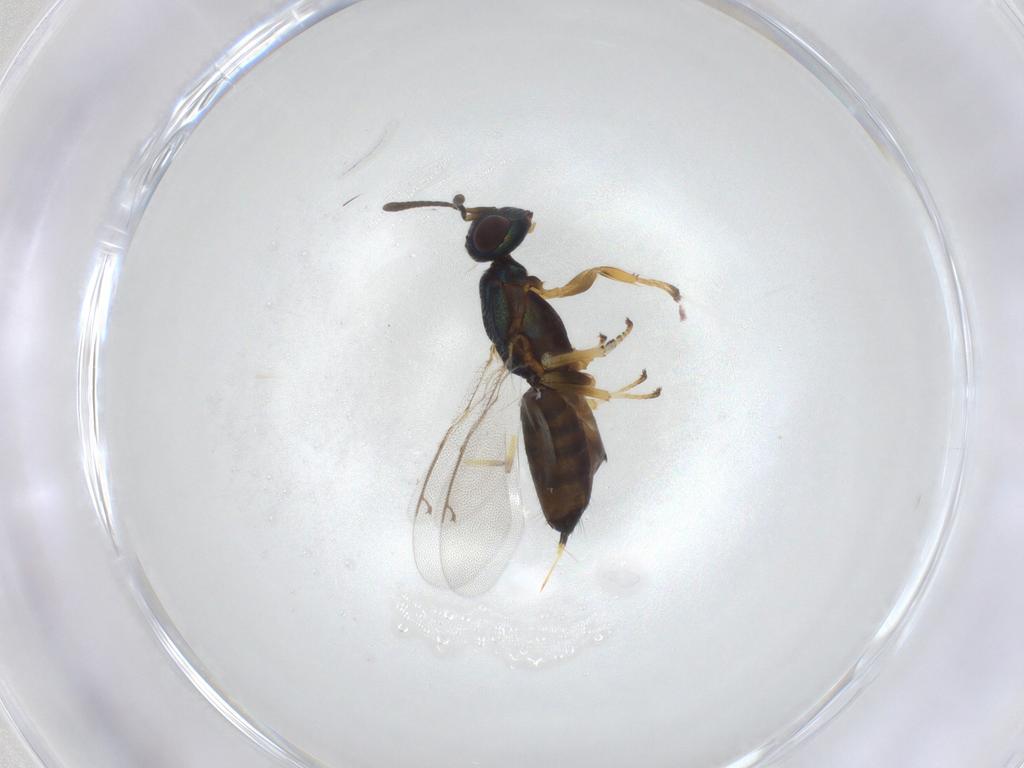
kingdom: Animalia
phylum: Arthropoda
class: Insecta
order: Hymenoptera
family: Eupelmidae
